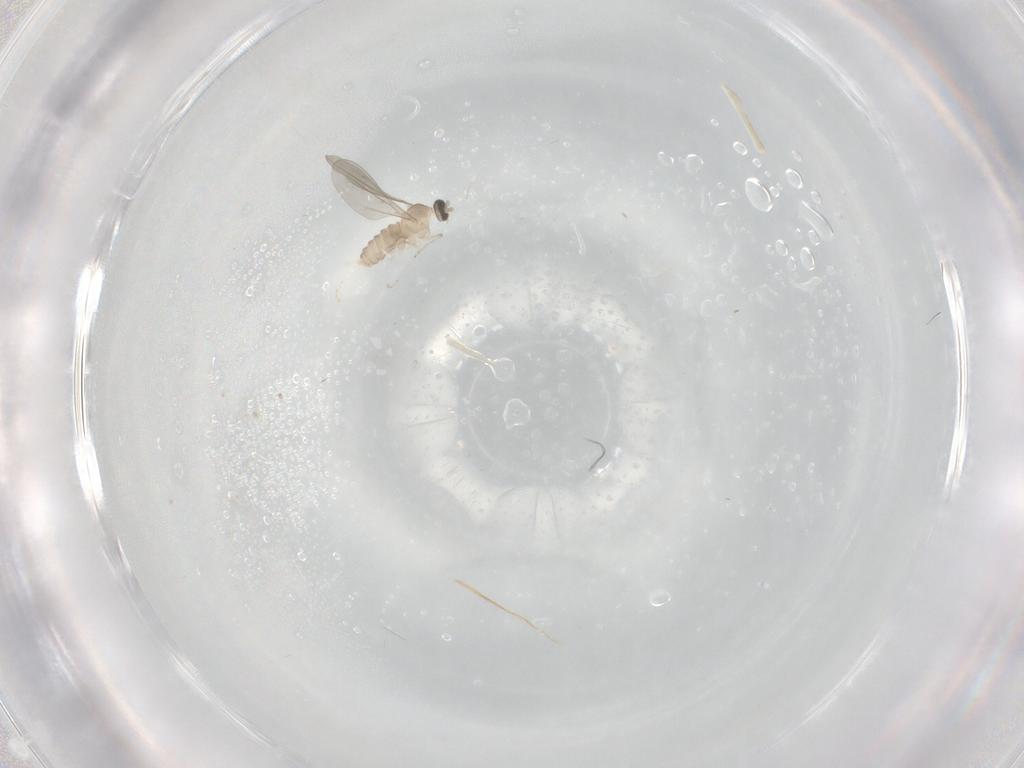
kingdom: Animalia
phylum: Arthropoda
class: Insecta
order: Diptera
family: Cecidomyiidae
